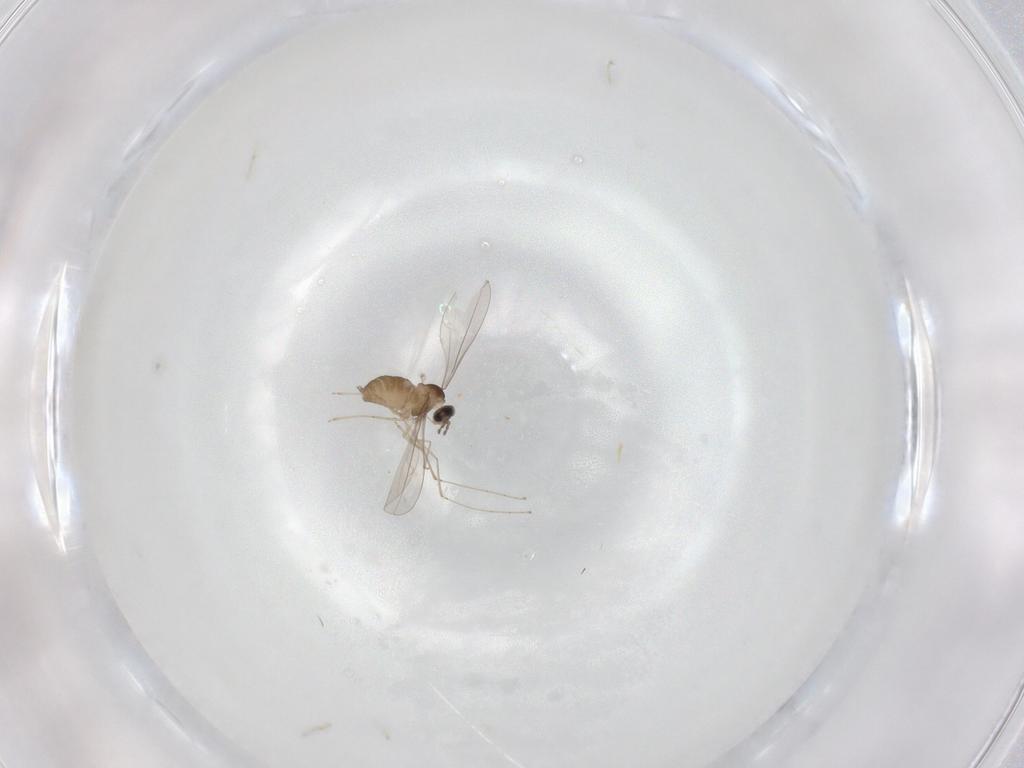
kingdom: Animalia
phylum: Arthropoda
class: Insecta
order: Diptera
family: Cecidomyiidae
